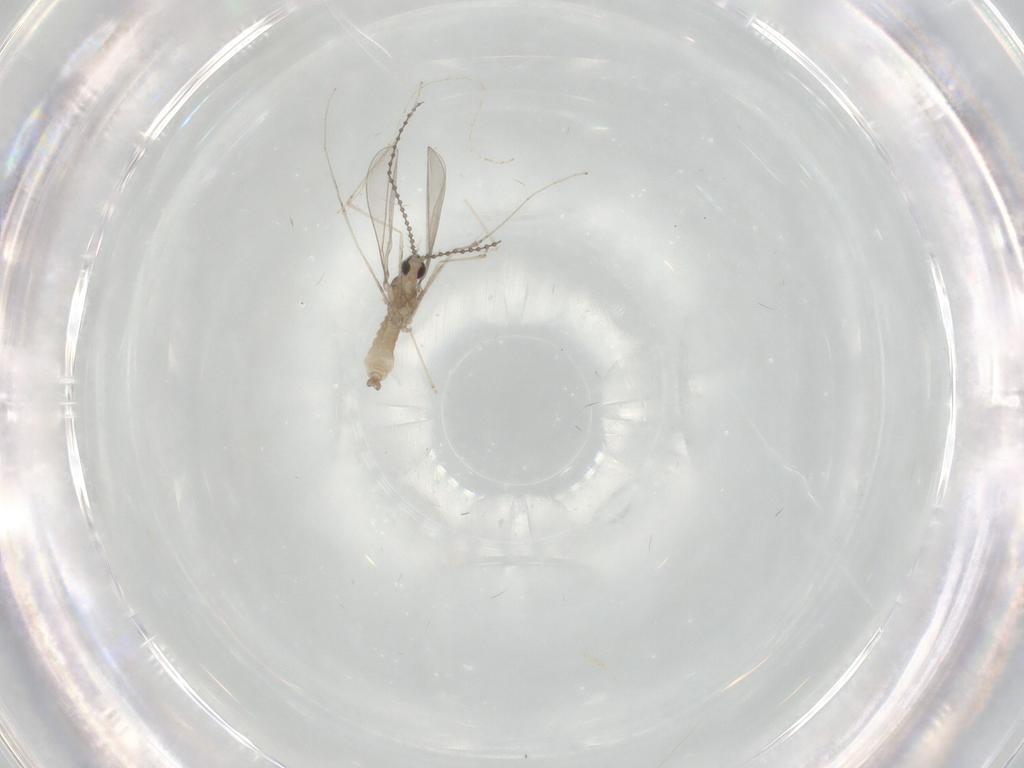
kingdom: Animalia
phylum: Arthropoda
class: Insecta
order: Diptera
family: Cecidomyiidae
